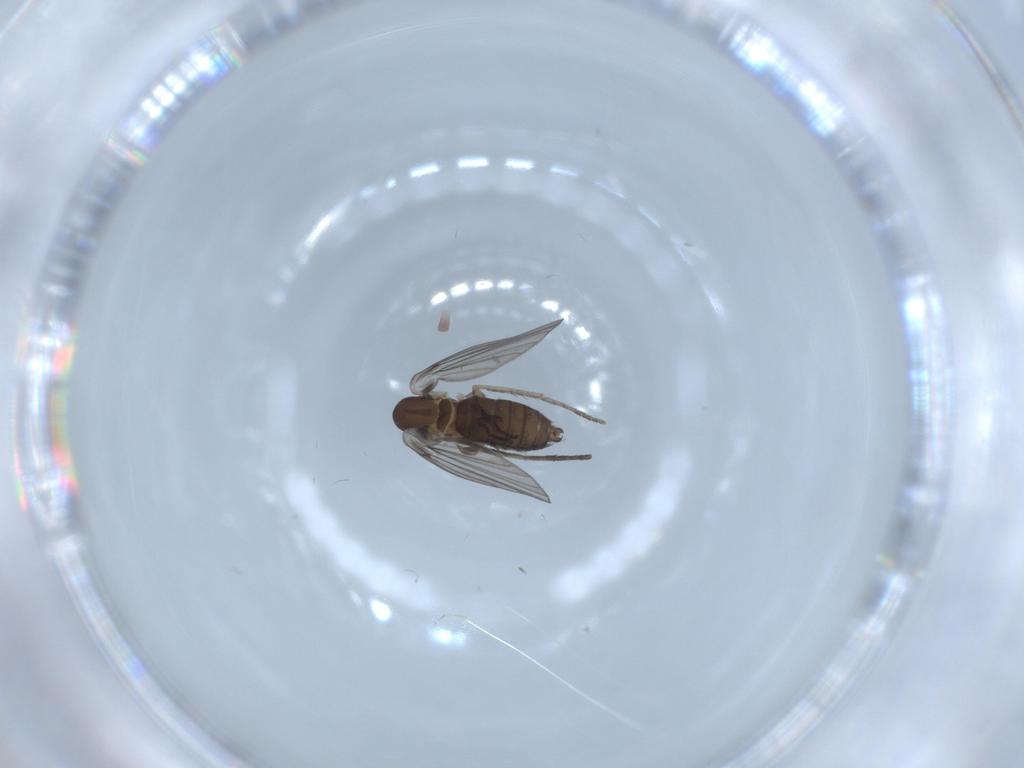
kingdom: Animalia
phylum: Arthropoda
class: Insecta
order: Diptera
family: Psychodidae
